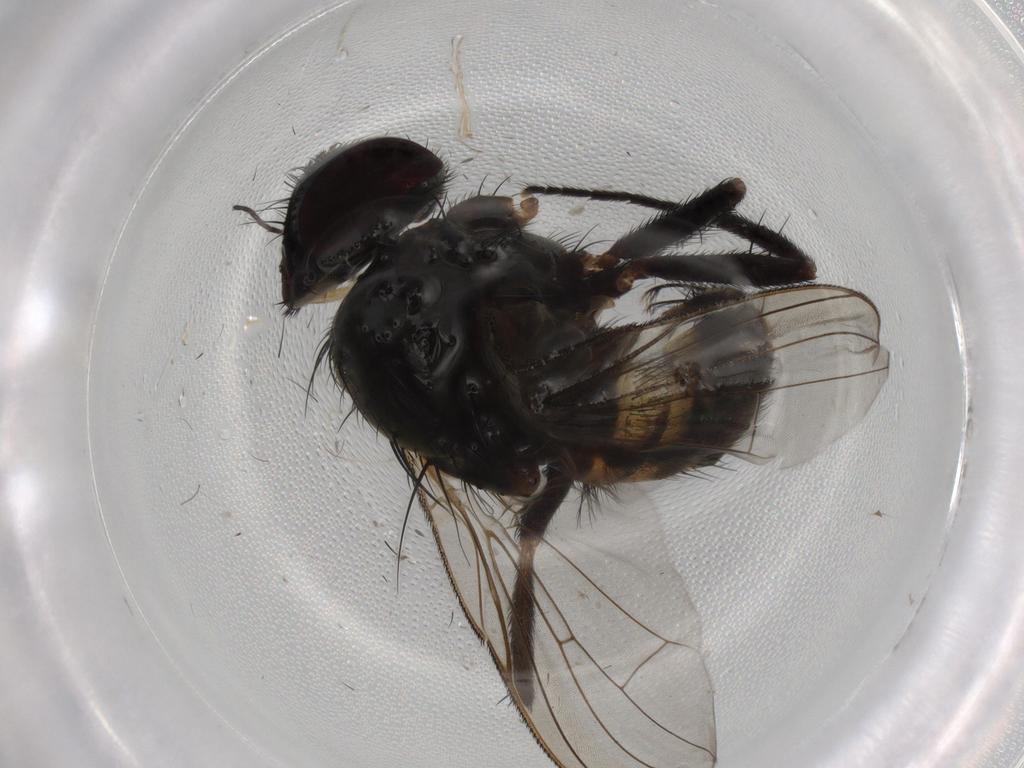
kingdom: Animalia
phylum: Arthropoda
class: Insecta
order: Diptera
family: Fannia
